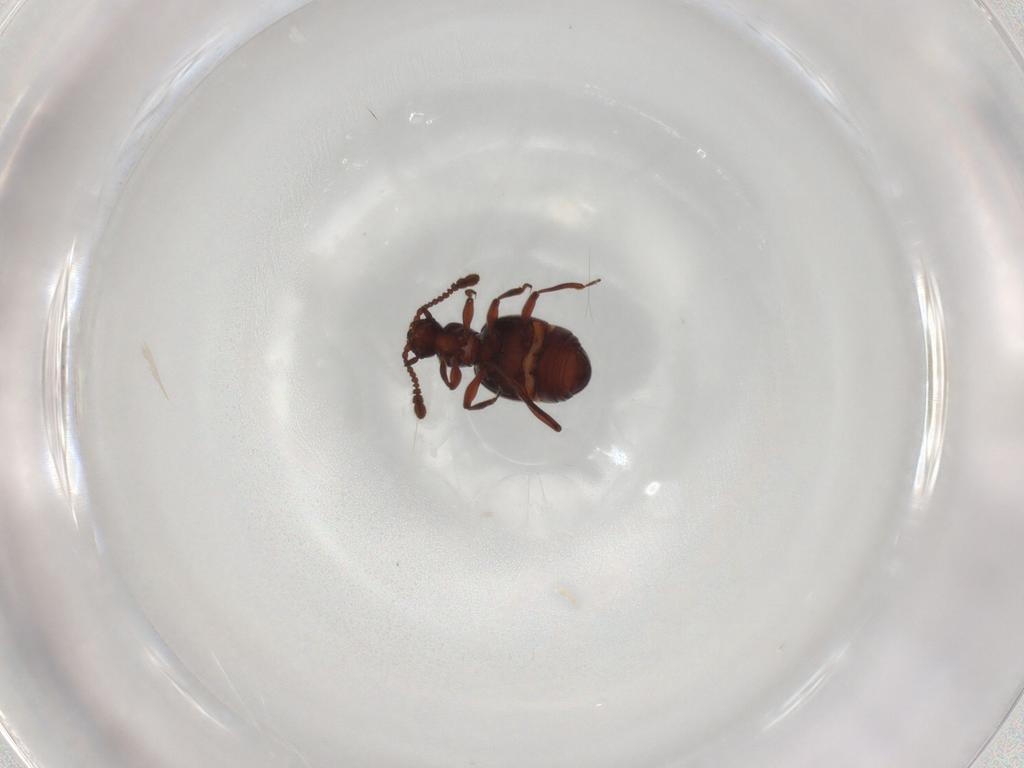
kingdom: Animalia
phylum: Arthropoda
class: Insecta
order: Coleoptera
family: Staphylinidae
